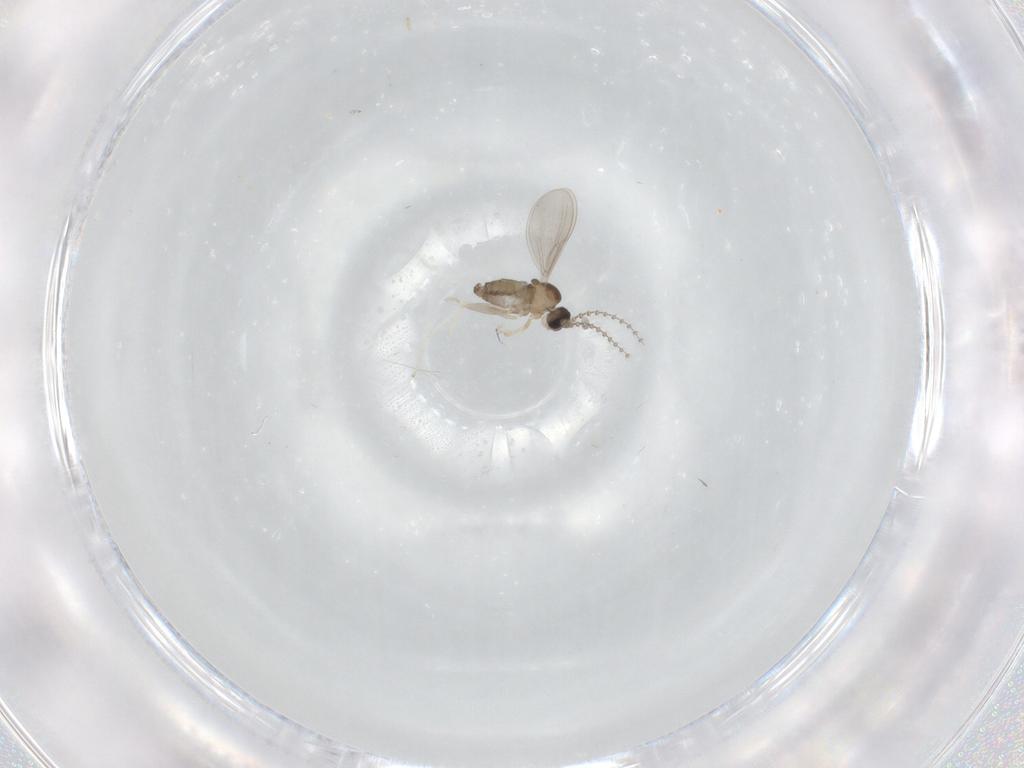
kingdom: Animalia
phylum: Arthropoda
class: Insecta
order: Diptera
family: Cecidomyiidae
